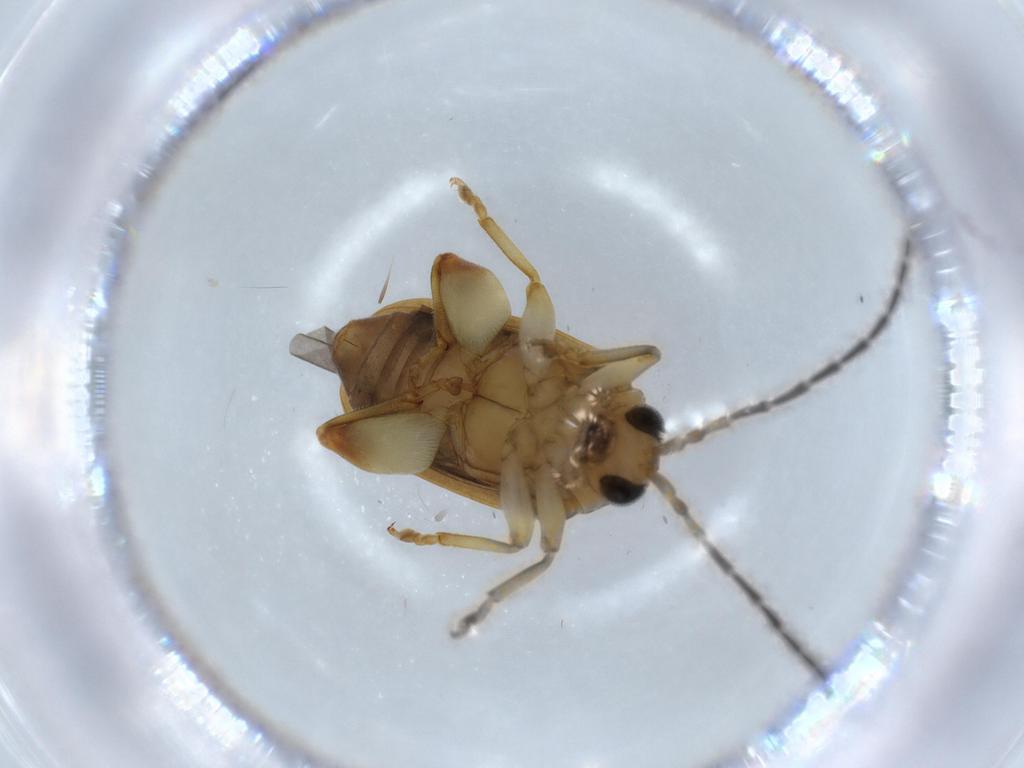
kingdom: Animalia
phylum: Arthropoda
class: Insecta
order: Coleoptera
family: Chrysomelidae
